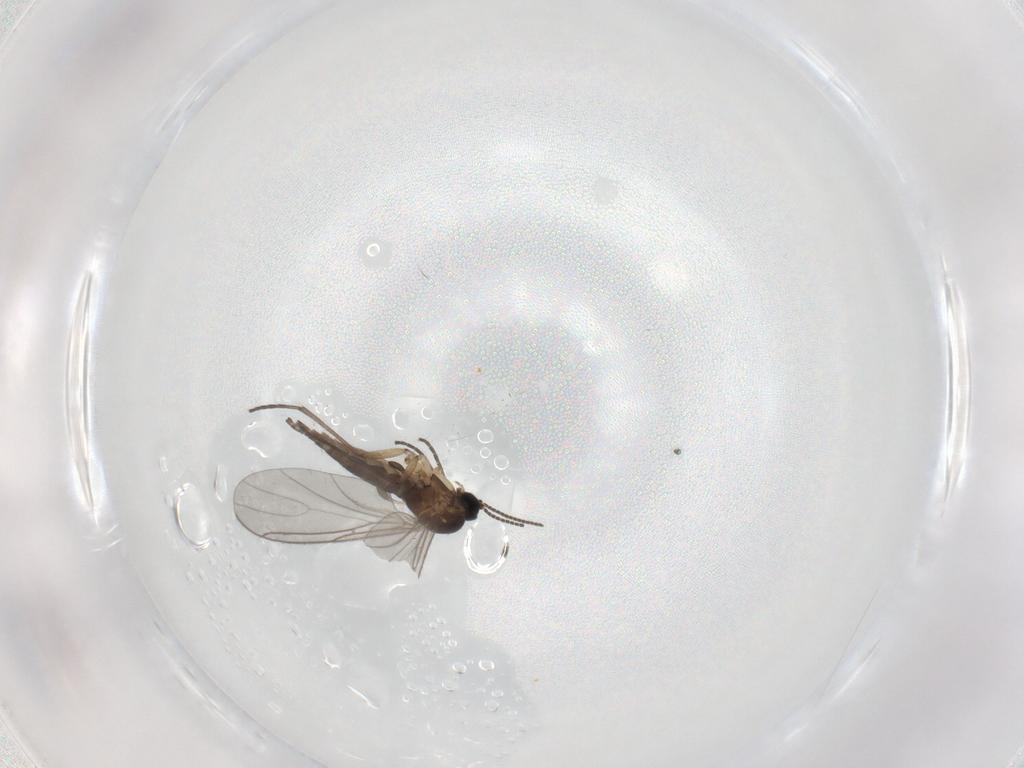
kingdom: Animalia
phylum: Arthropoda
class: Insecta
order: Diptera
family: Sciaridae
